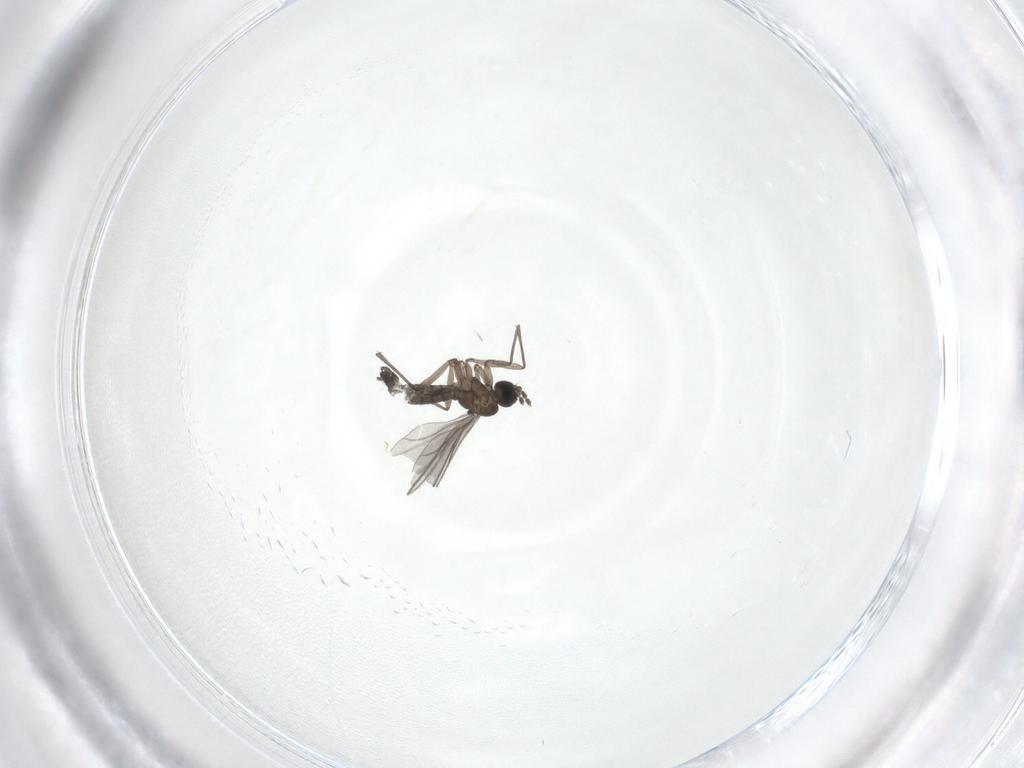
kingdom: Animalia
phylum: Arthropoda
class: Insecta
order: Diptera
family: Cecidomyiidae
